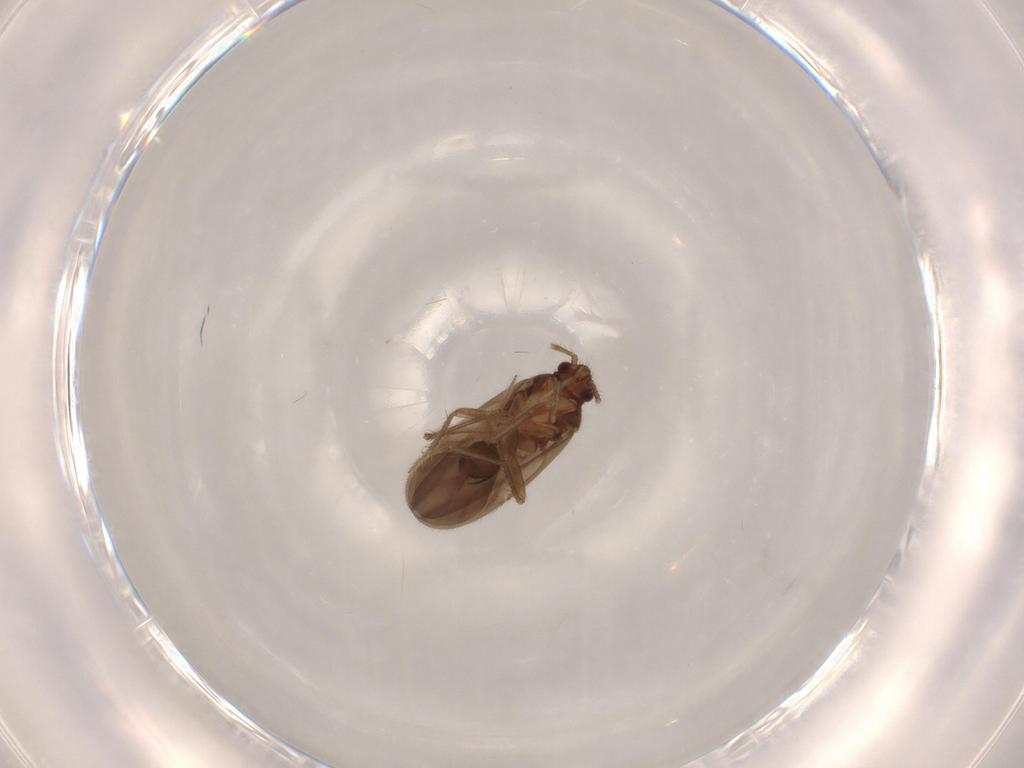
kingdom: Animalia
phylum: Arthropoda
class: Insecta
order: Hemiptera
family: Ceratocombidae
